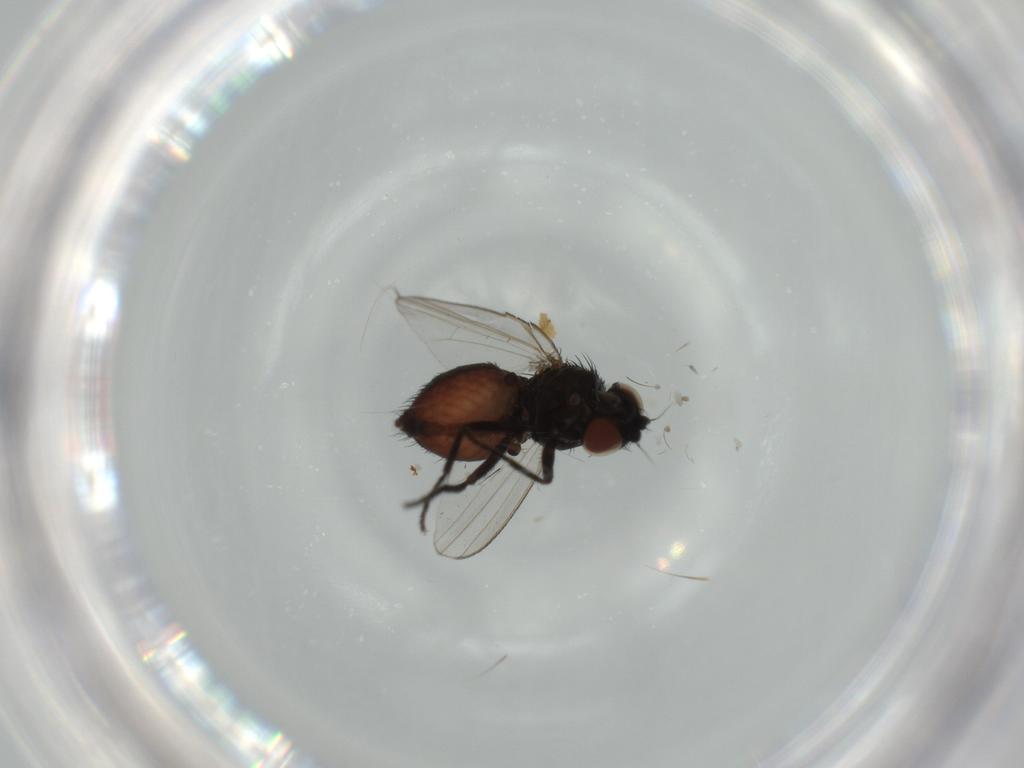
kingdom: Animalia
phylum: Arthropoda
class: Insecta
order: Diptera
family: Milichiidae
